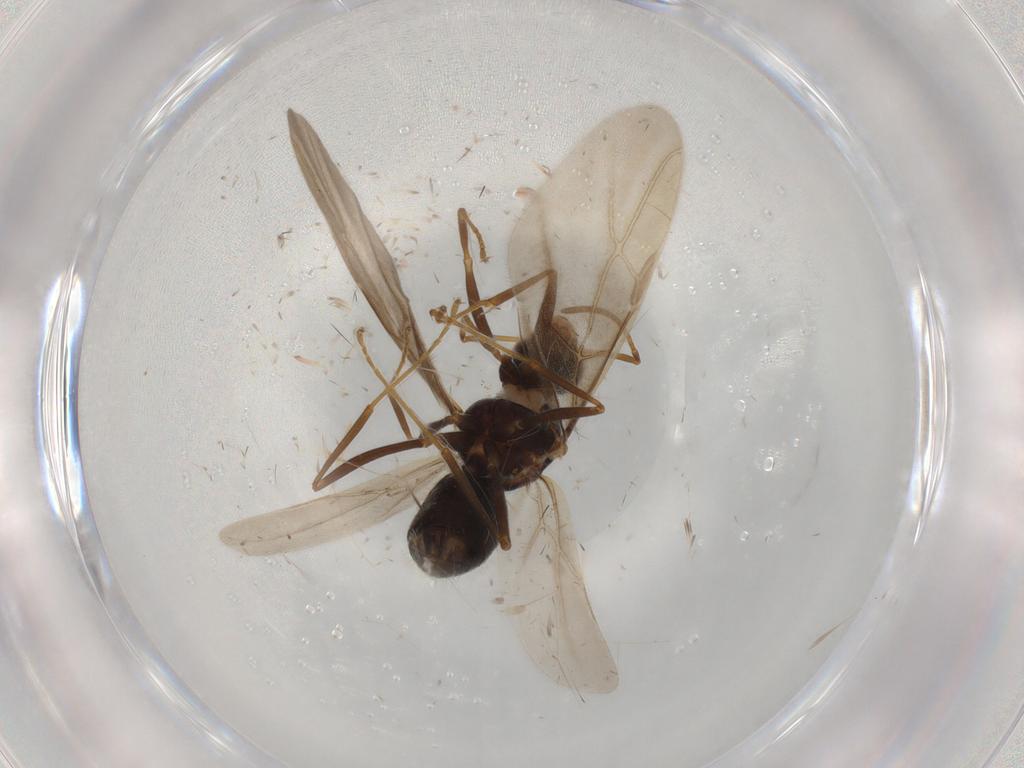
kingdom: Animalia
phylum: Arthropoda
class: Insecta
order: Hymenoptera
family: Formicidae
